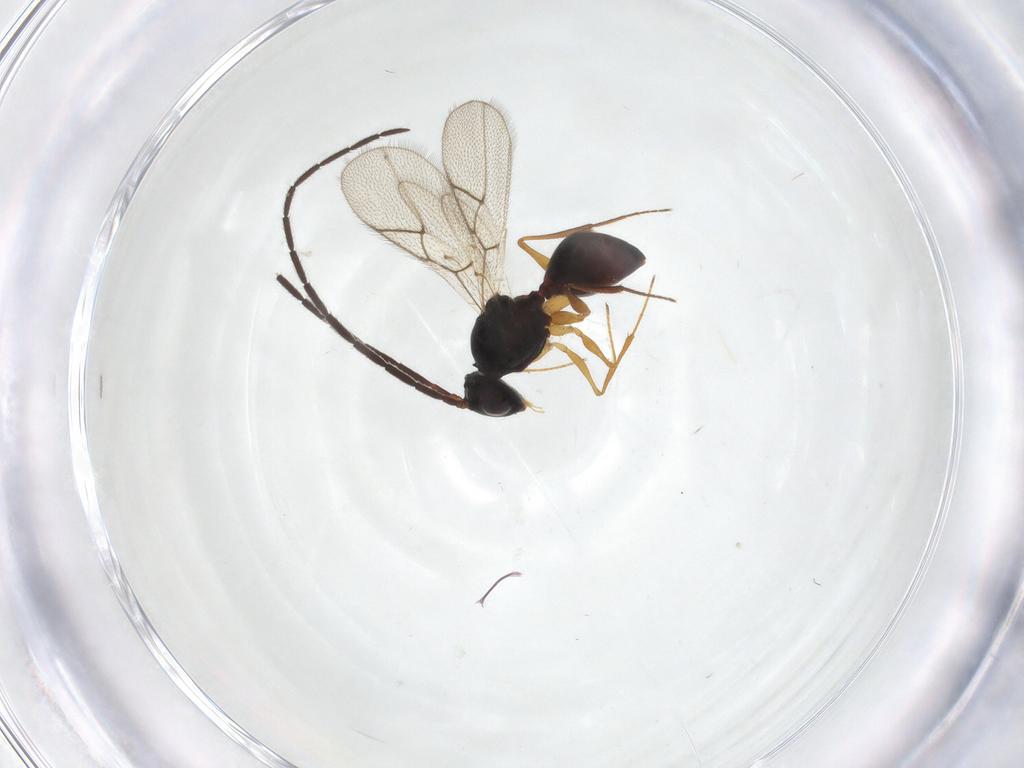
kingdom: Animalia
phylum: Arthropoda
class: Insecta
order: Hymenoptera
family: Figitidae
